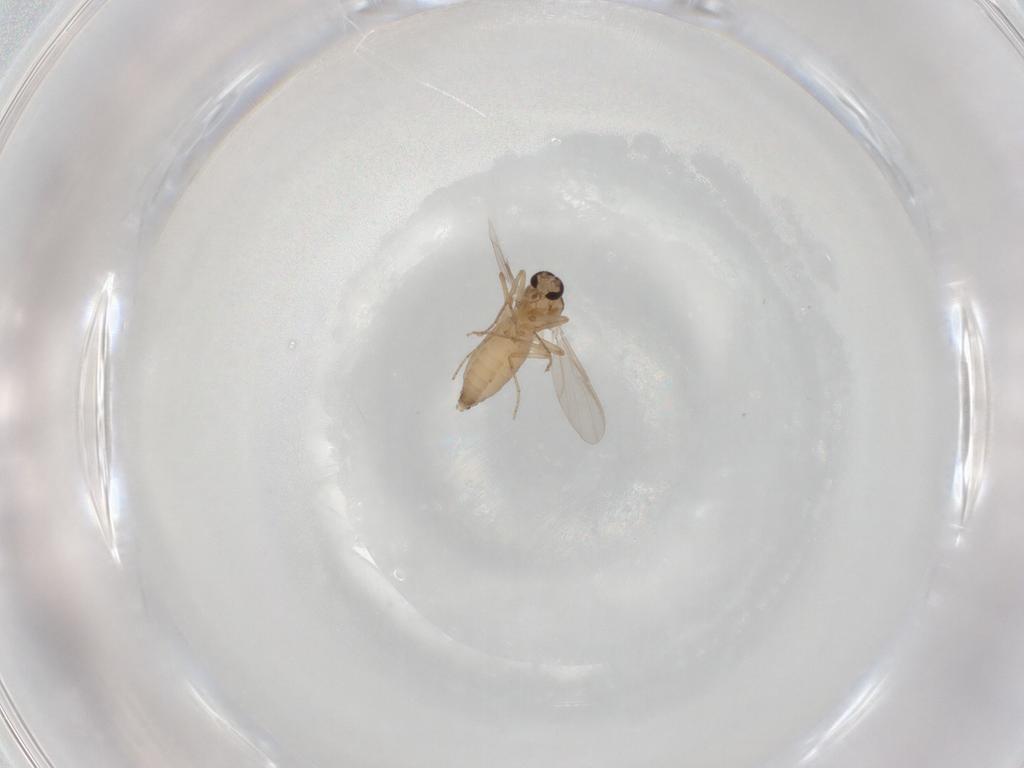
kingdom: Animalia
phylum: Arthropoda
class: Insecta
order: Diptera
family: Ceratopogonidae
